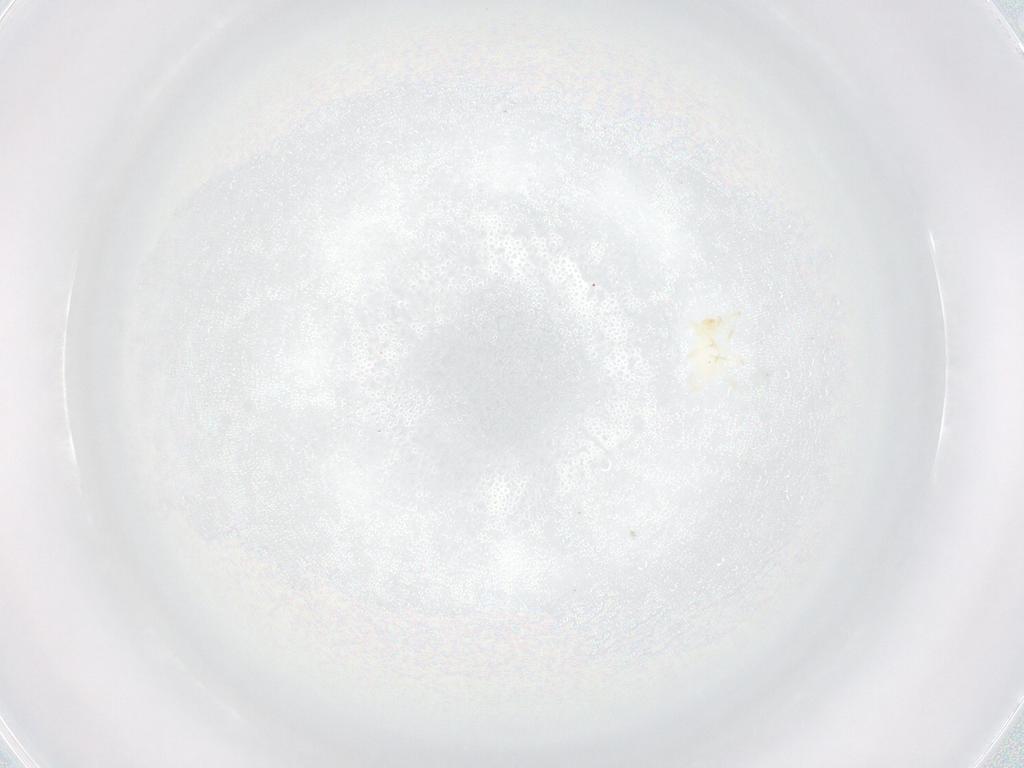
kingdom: Animalia
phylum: Arthropoda
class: Arachnida
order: Trombidiformes
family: Erythraeidae
